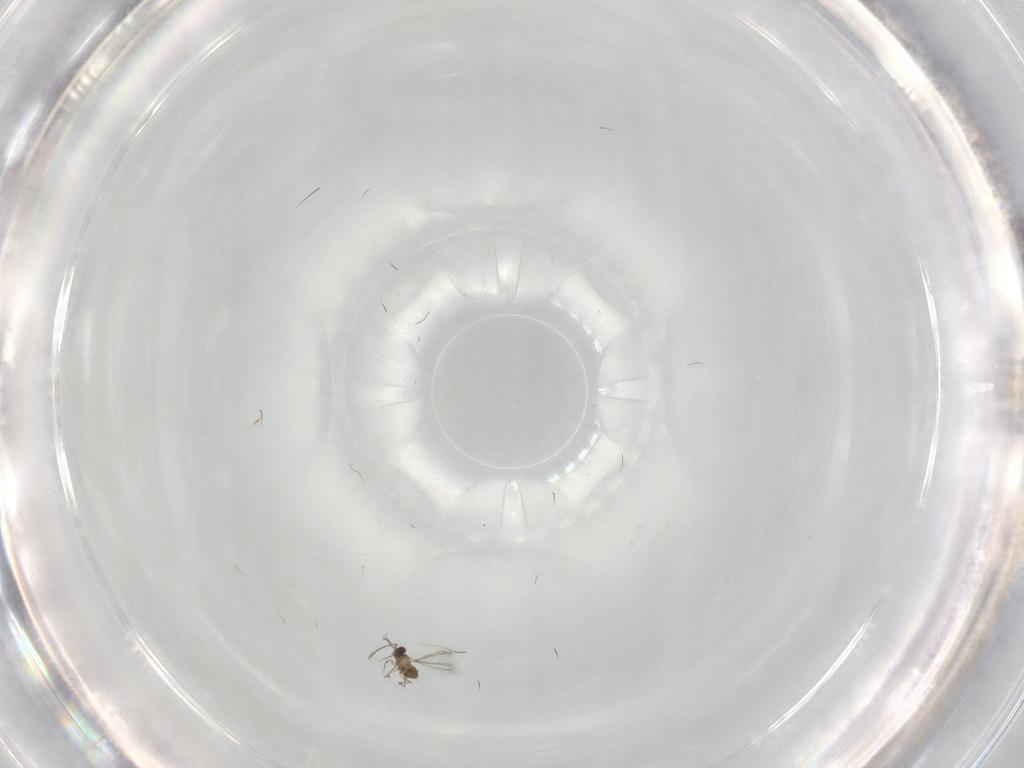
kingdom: Animalia
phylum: Arthropoda
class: Insecta
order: Hymenoptera
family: Mymaridae
